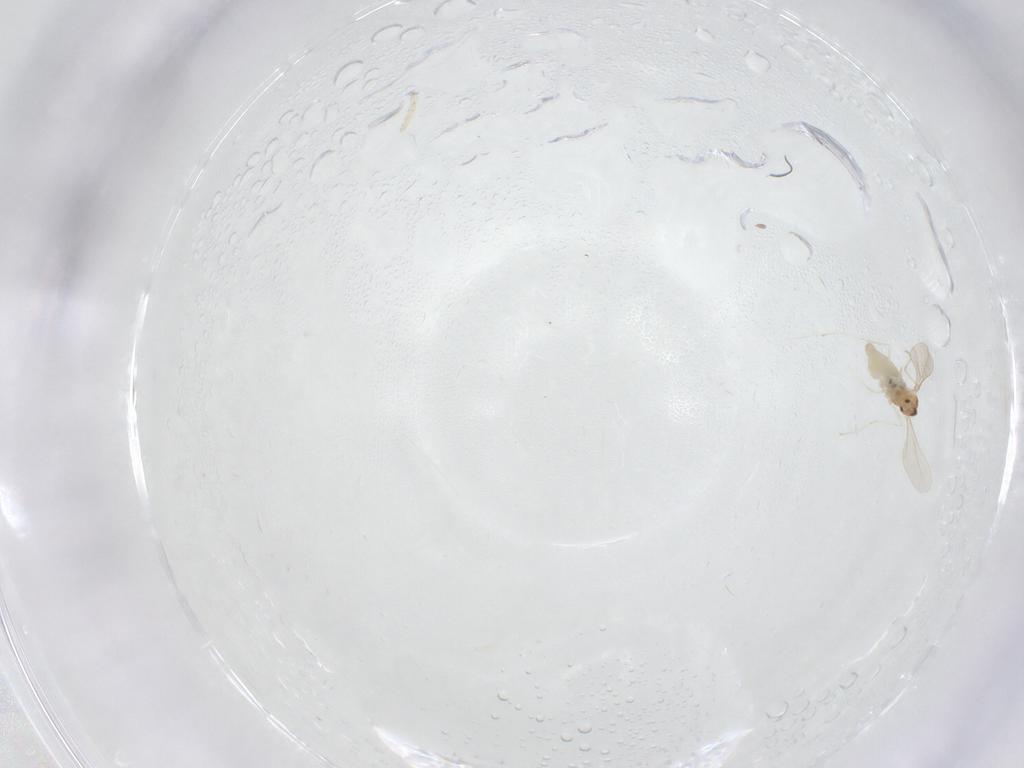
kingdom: Animalia
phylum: Arthropoda
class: Insecta
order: Diptera
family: Cecidomyiidae
